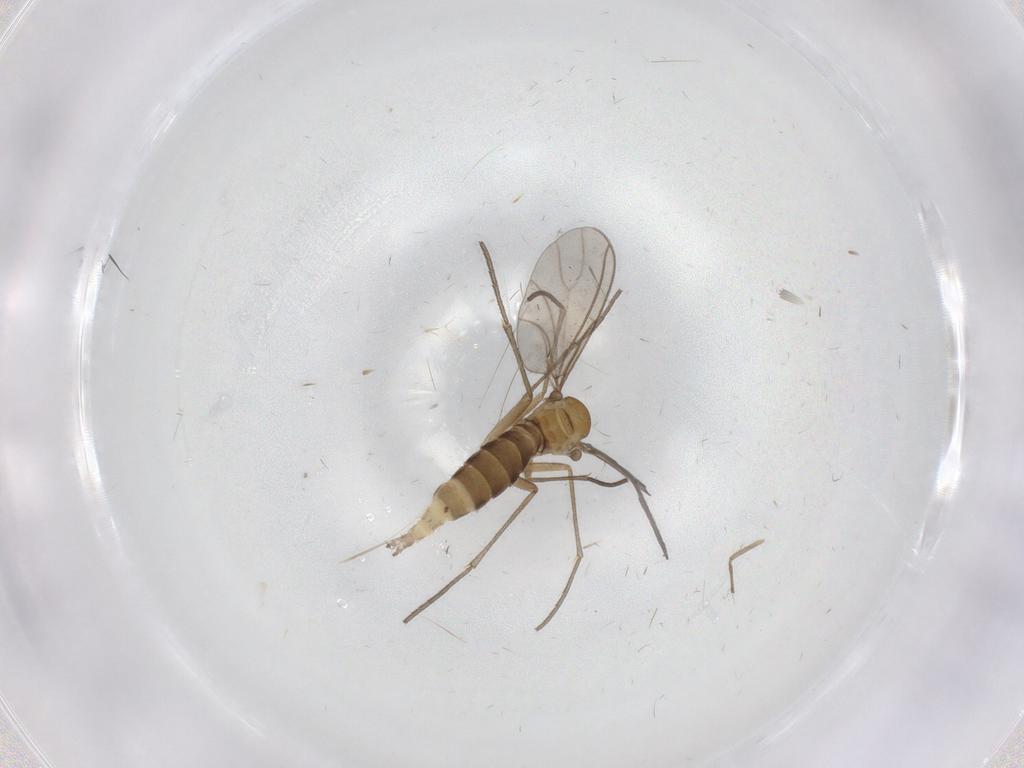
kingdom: Animalia
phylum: Arthropoda
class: Insecta
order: Diptera
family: Sciaridae
